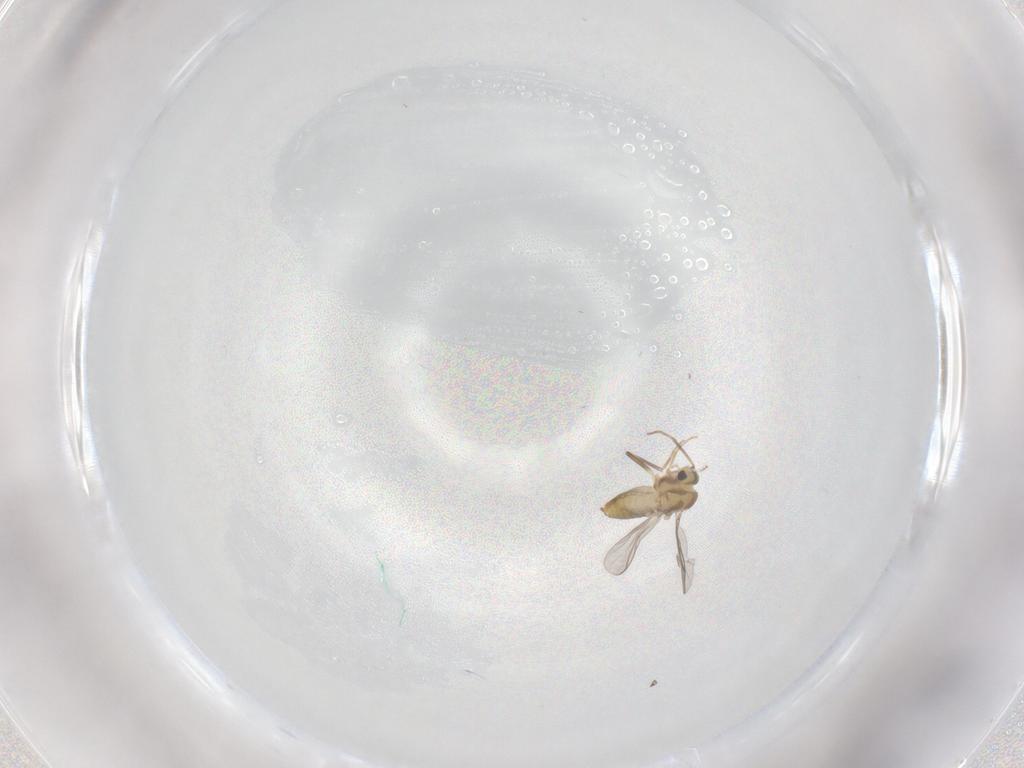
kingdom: Animalia
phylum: Arthropoda
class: Insecta
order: Diptera
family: Chironomidae
